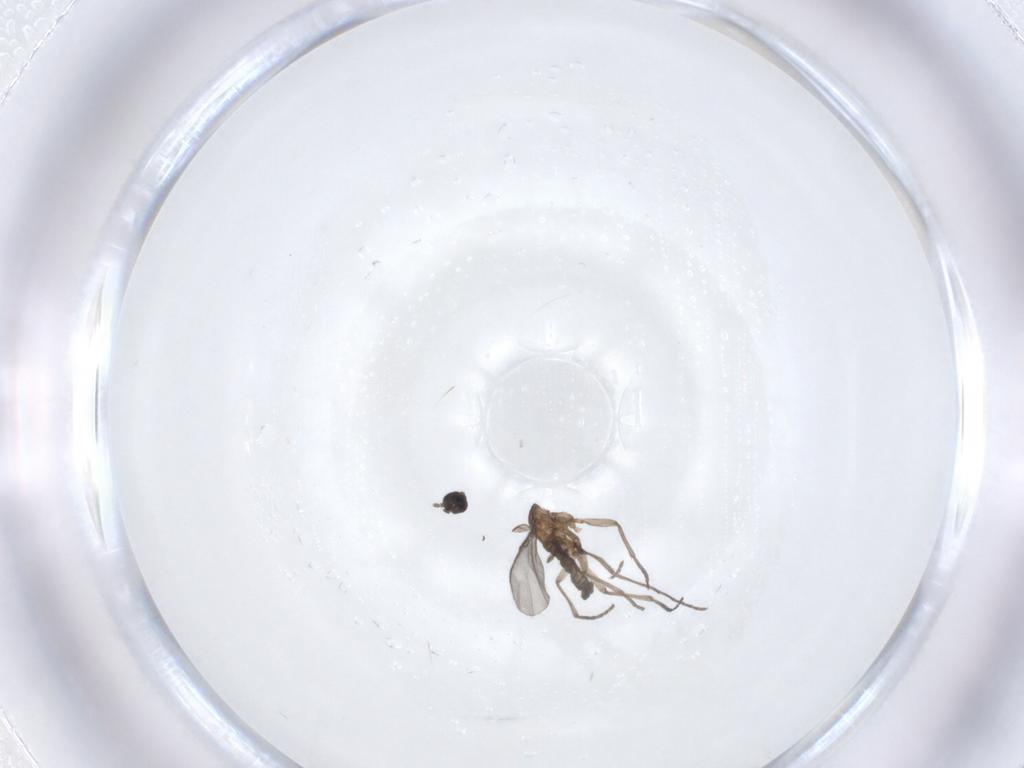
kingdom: Animalia
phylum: Arthropoda
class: Insecta
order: Diptera
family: Sciaridae
